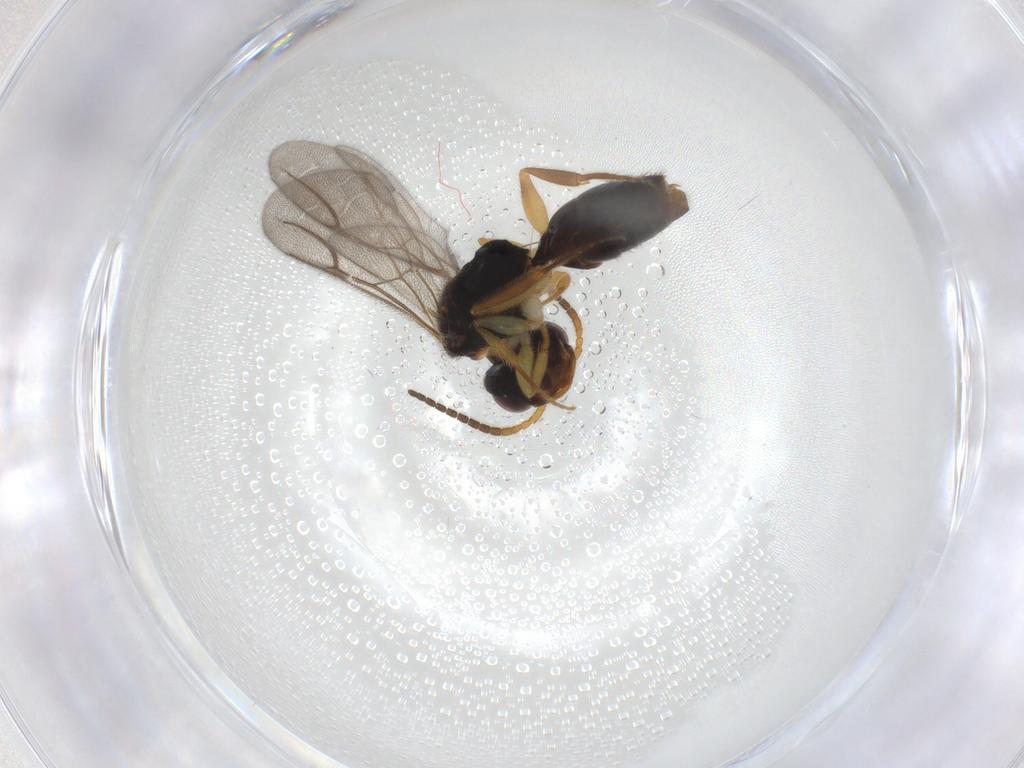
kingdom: Animalia
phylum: Arthropoda
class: Insecta
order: Hymenoptera
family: Bethylidae
